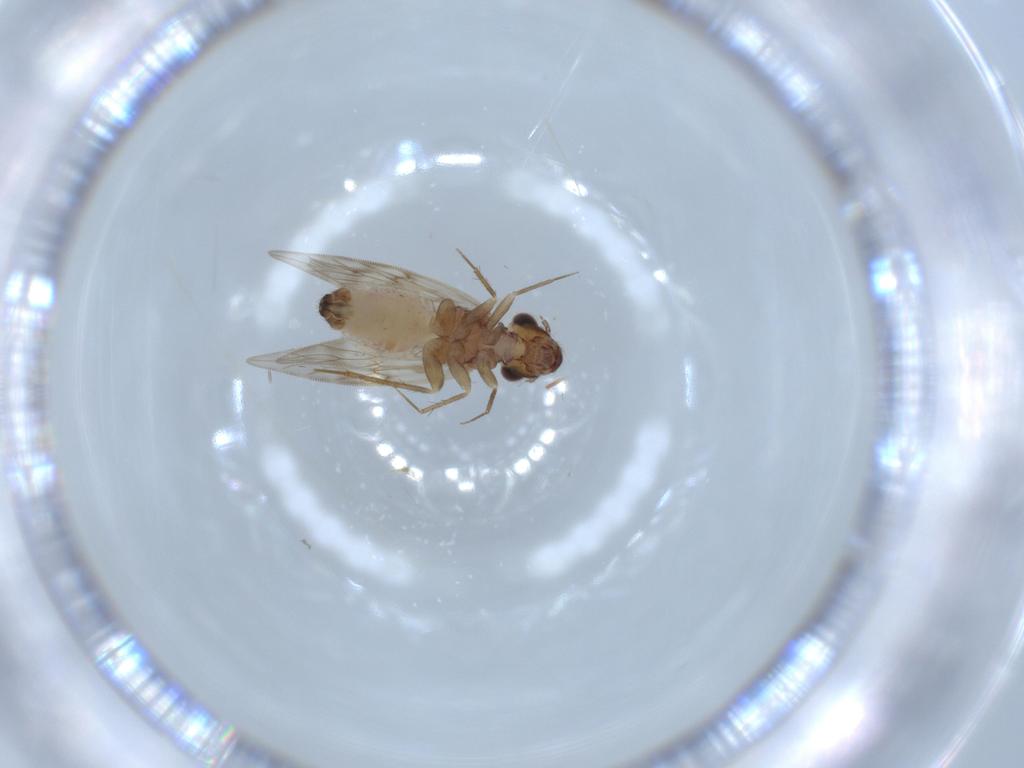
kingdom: Animalia
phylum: Arthropoda
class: Insecta
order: Psocodea
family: Lepidopsocidae
